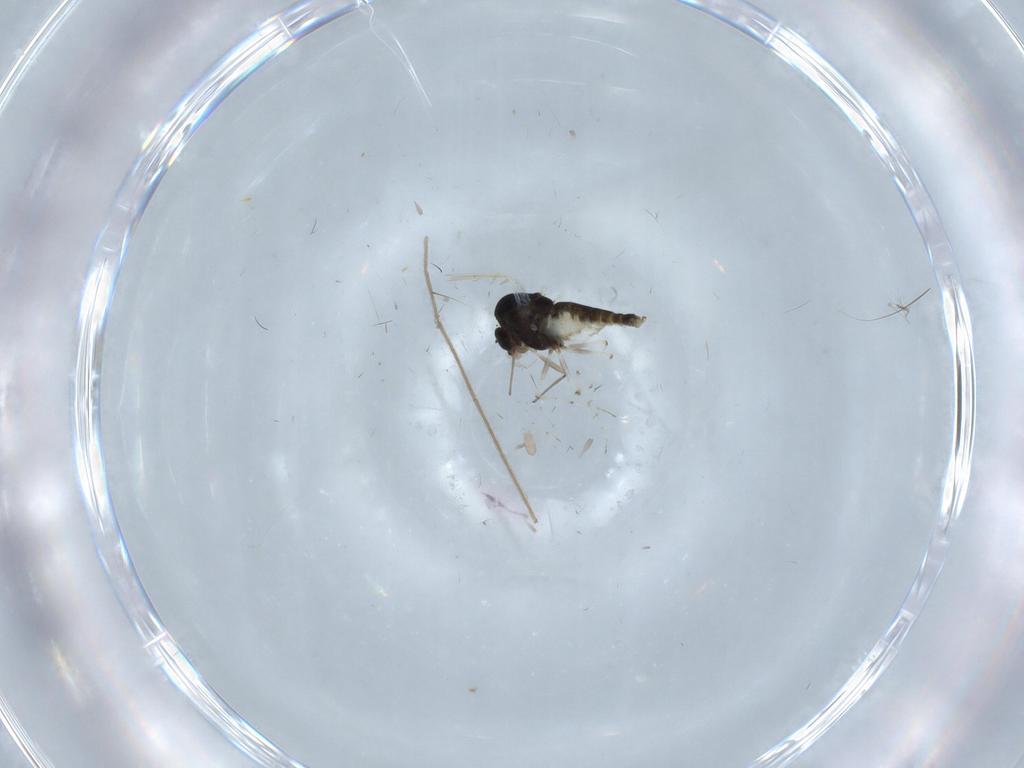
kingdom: Animalia
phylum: Arthropoda
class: Insecta
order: Diptera
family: Chironomidae
